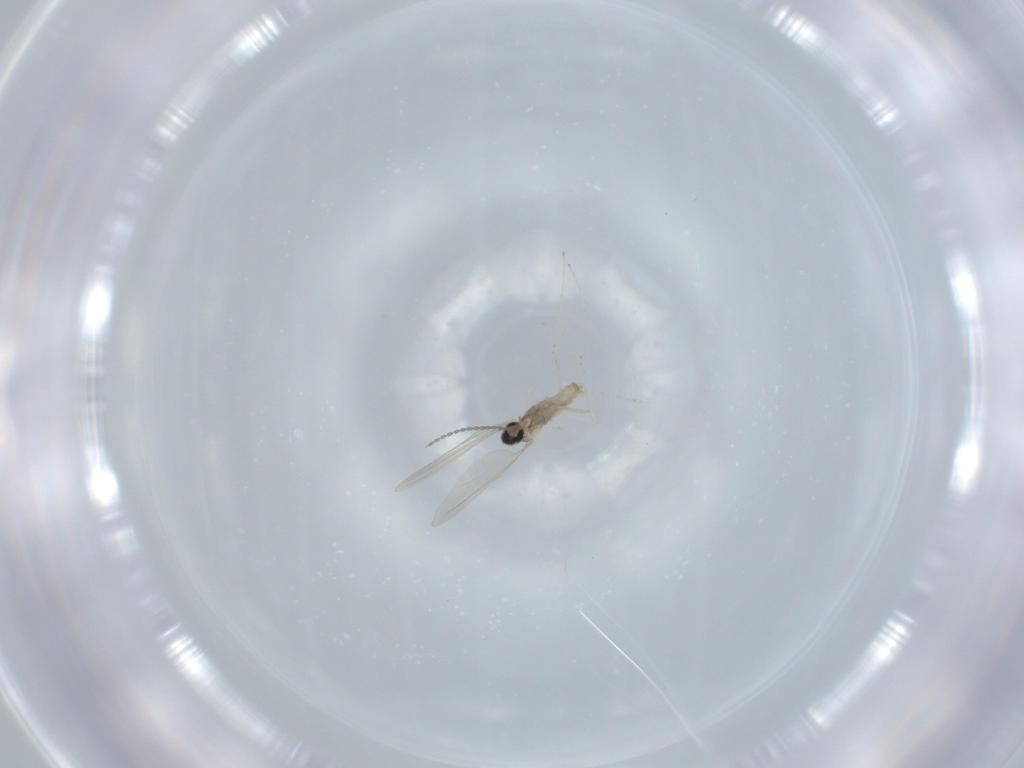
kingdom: Animalia
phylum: Arthropoda
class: Insecta
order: Diptera
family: Cecidomyiidae
